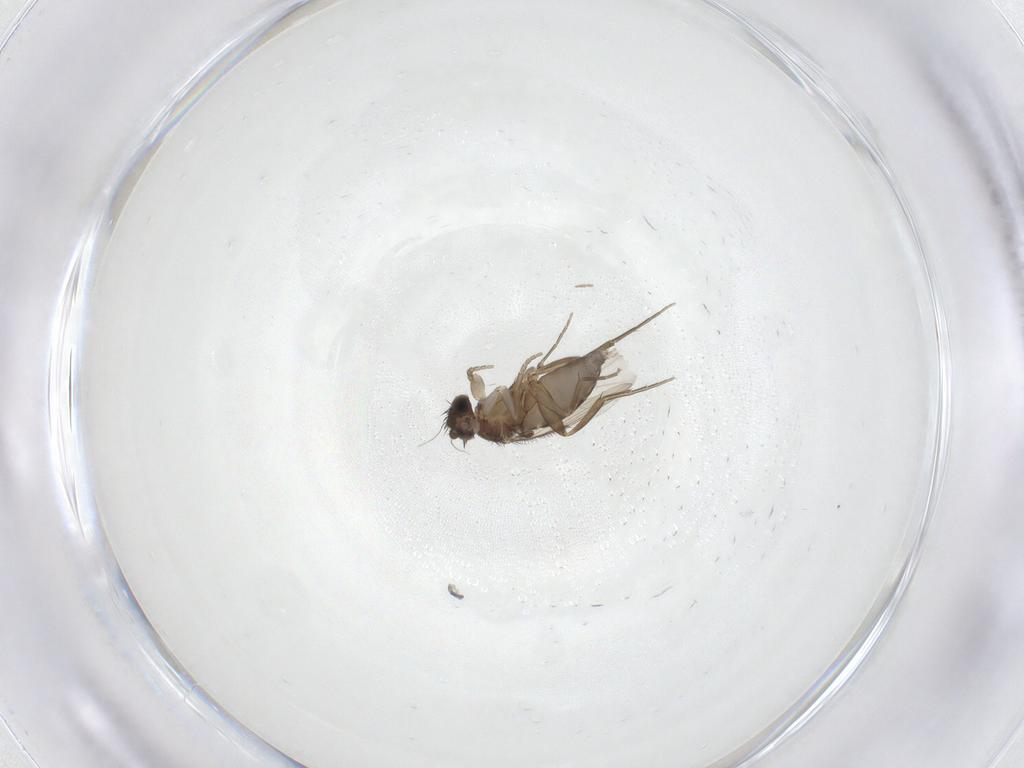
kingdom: Animalia
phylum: Arthropoda
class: Insecta
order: Diptera
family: Phoridae
